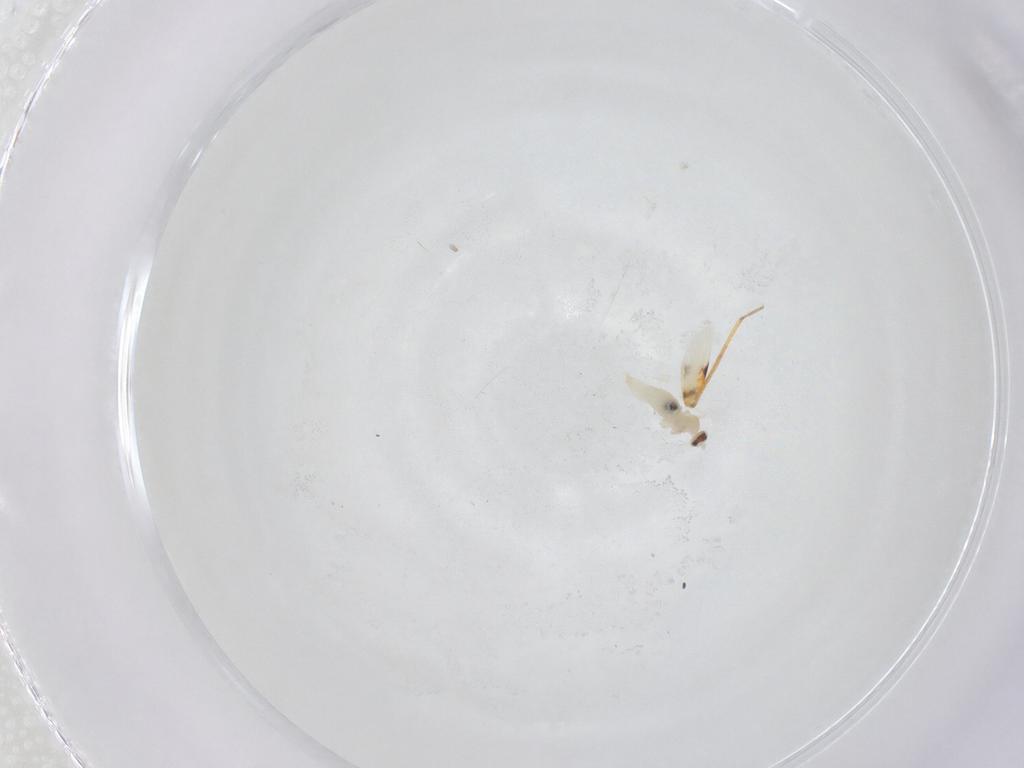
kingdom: Animalia
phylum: Arthropoda
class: Insecta
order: Diptera
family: Cecidomyiidae
